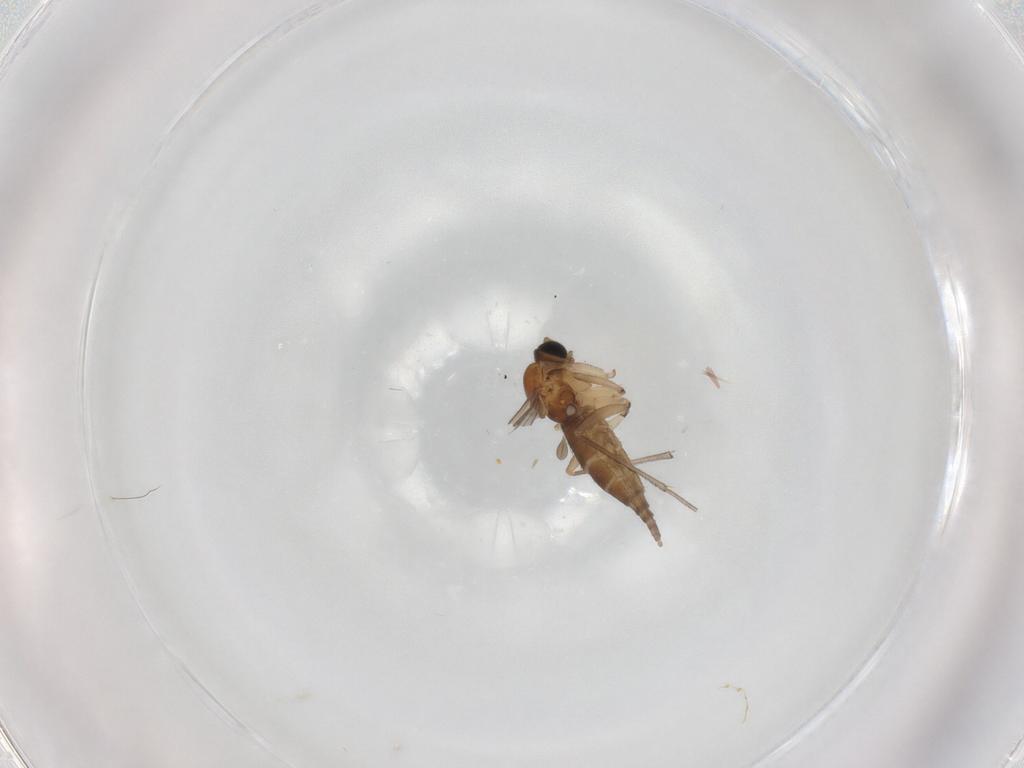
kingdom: Animalia
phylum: Arthropoda
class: Insecta
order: Diptera
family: Sciaridae
